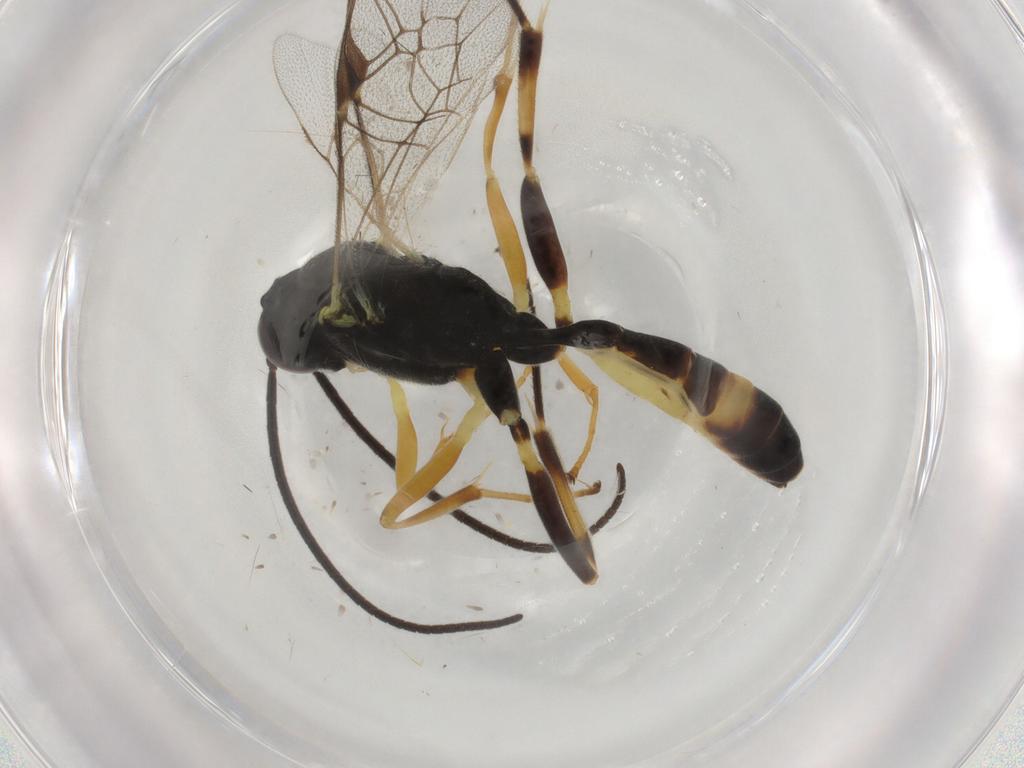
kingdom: Animalia
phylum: Arthropoda
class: Insecta
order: Hymenoptera
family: Ichneumonidae
